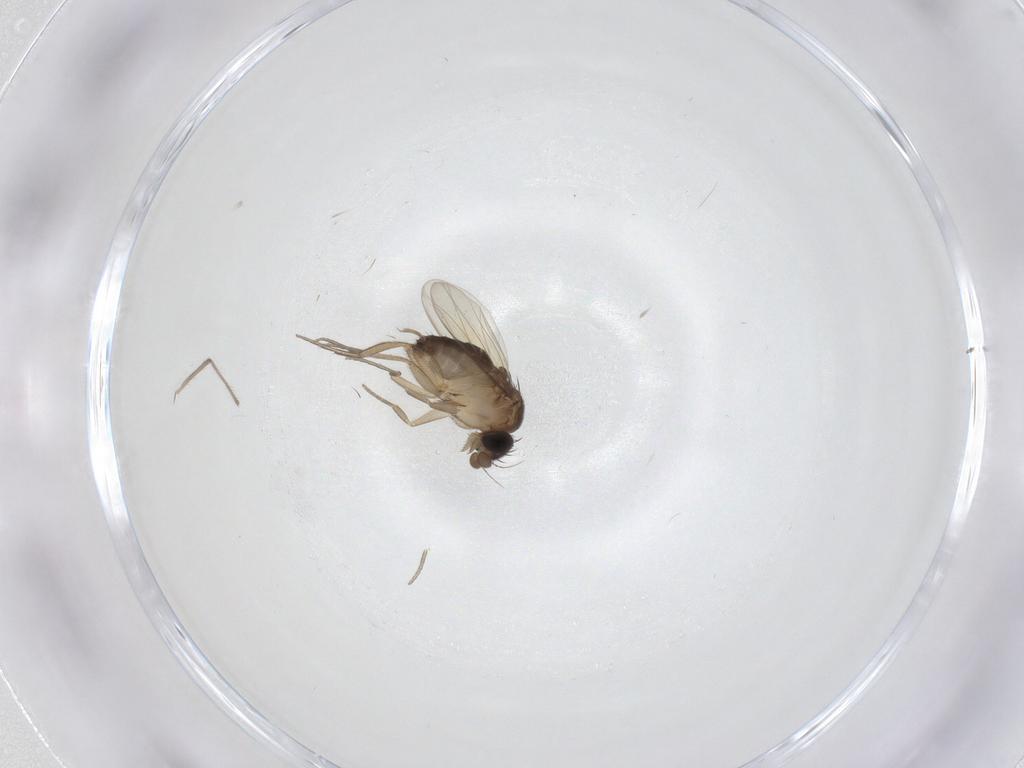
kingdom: Animalia
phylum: Arthropoda
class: Insecta
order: Diptera
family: Phoridae
